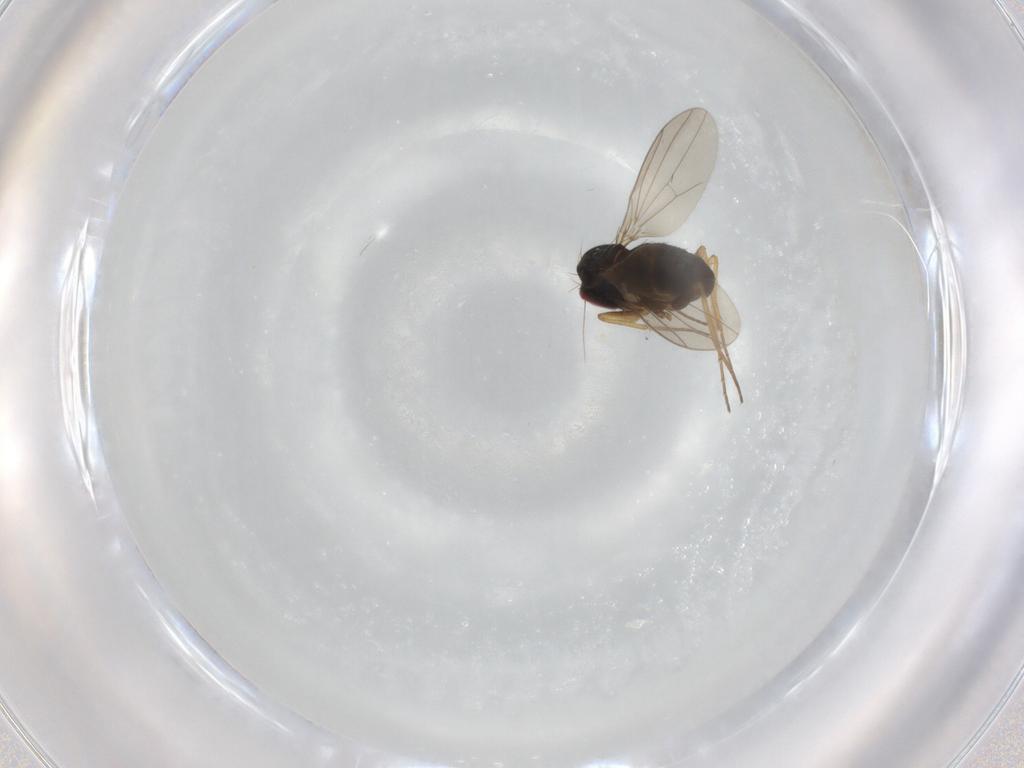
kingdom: Animalia
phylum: Arthropoda
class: Insecta
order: Diptera
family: Dolichopodidae
